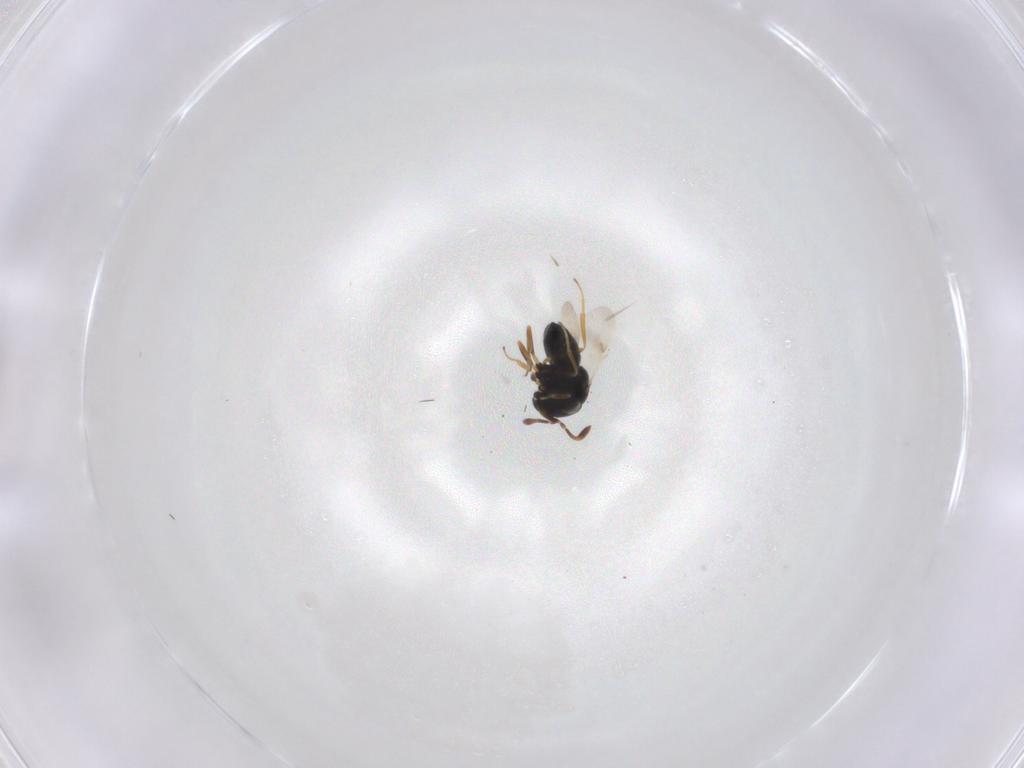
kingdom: Animalia
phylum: Arthropoda
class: Insecta
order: Hymenoptera
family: Scelionidae
